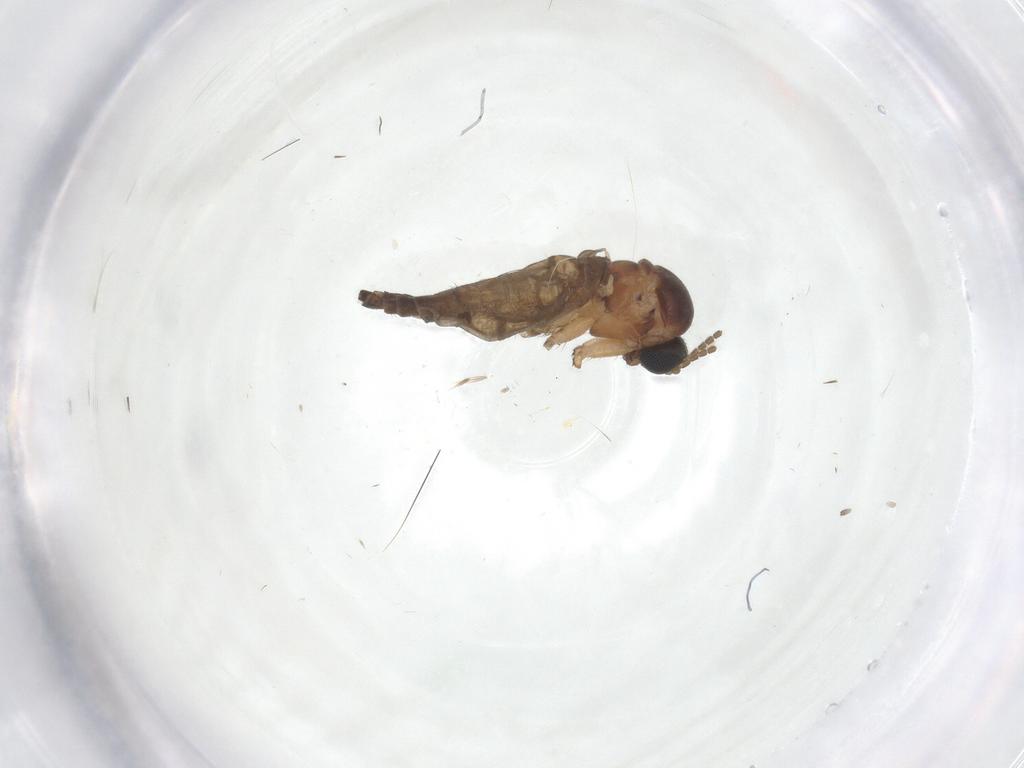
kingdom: Animalia
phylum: Arthropoda
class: Insecta
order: Diptera
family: Sciaridae
